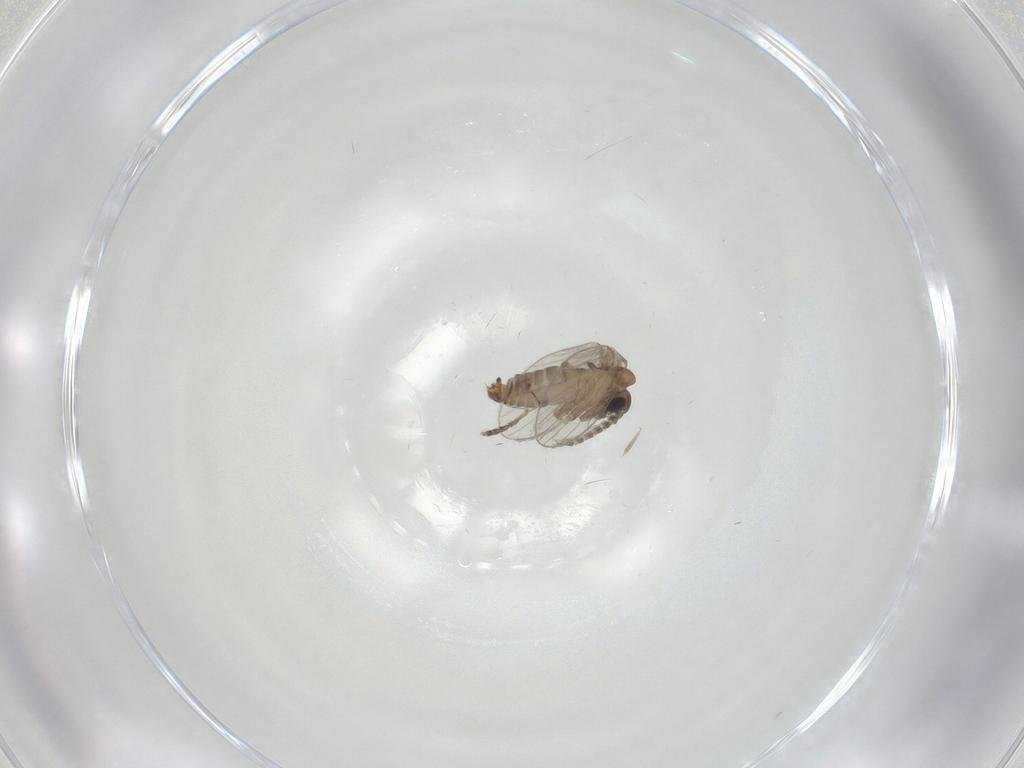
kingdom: Animalia
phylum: Arthropoda
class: Insecta
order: Diptera
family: Psychodidae
